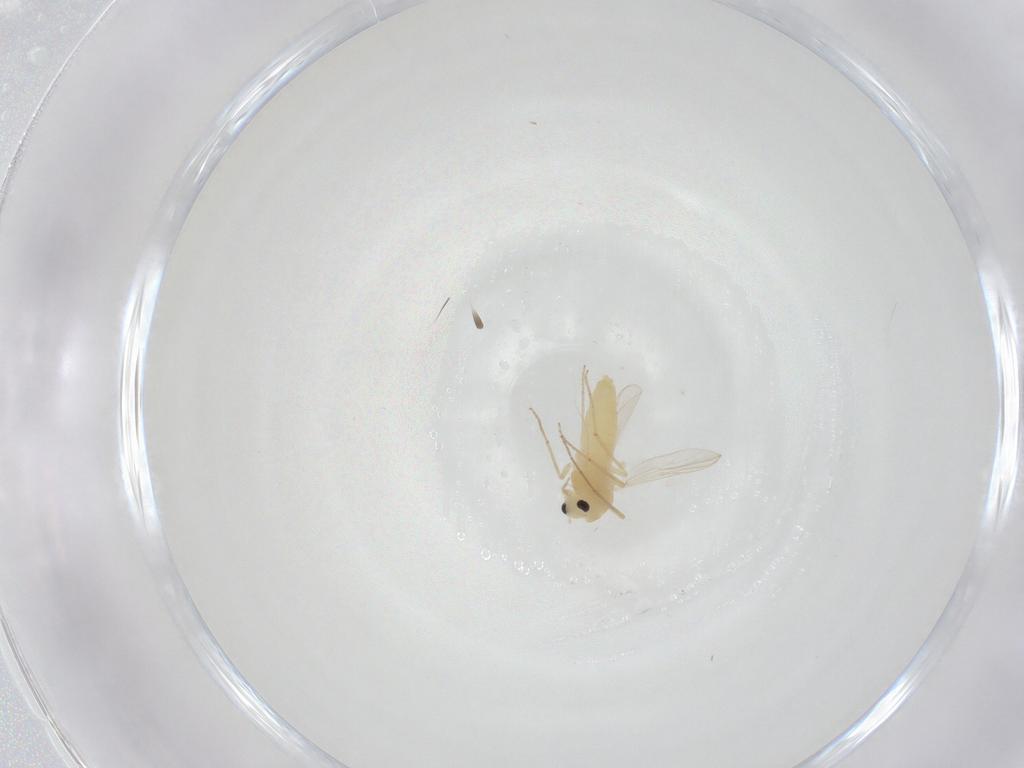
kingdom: Animalia
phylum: Arthropoda
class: Insecta
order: Diptera
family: Chironomidae
